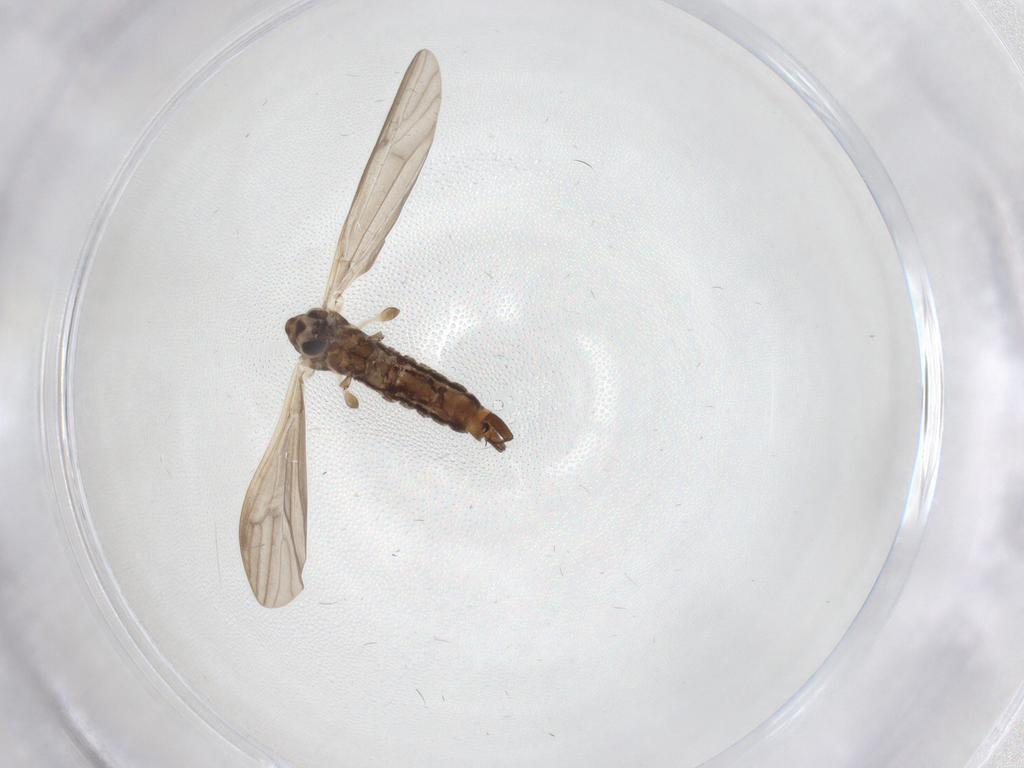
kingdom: Animalia
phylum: Arthropoda
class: Insecta
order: Diptera
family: Limoniidae
